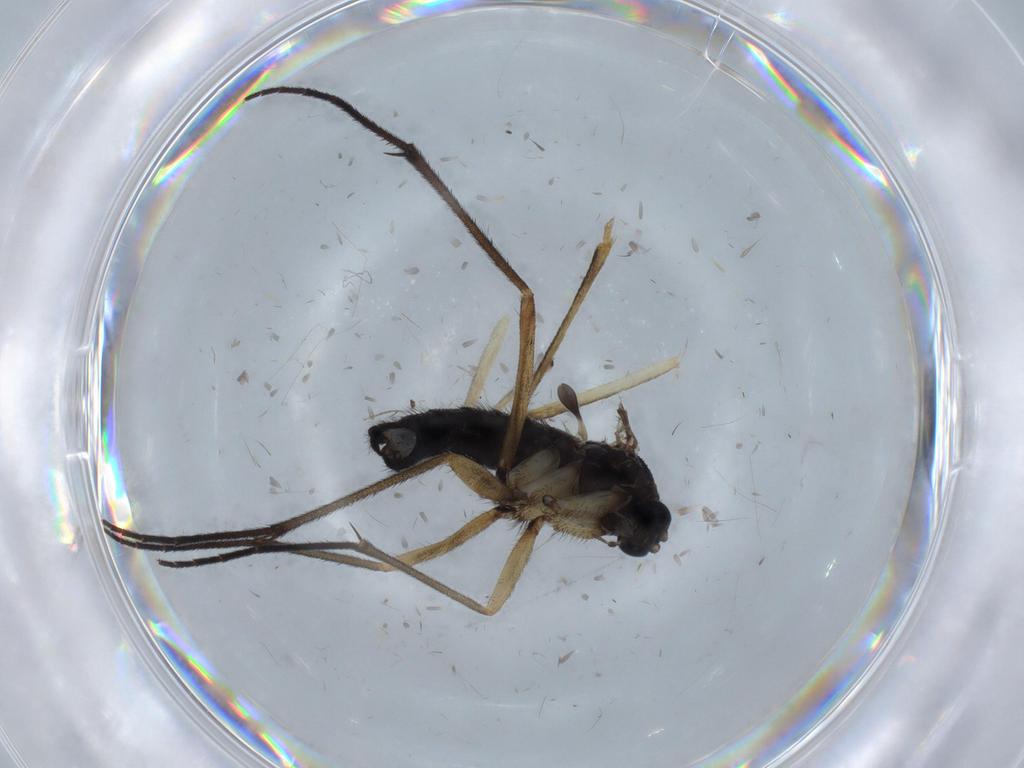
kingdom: Animalia
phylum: Arthropoda
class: Insecta
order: Diptera
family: Sciaridae
